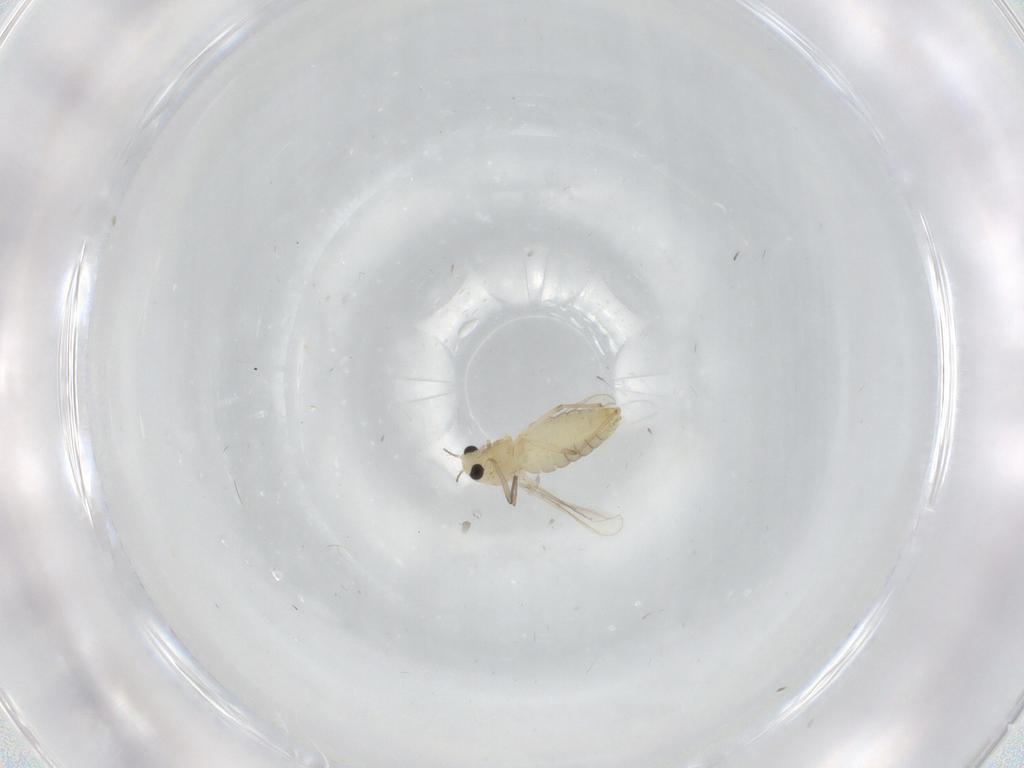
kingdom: Animalia
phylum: Arthropoda
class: Insecta
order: Diptera
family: Chironomidae
